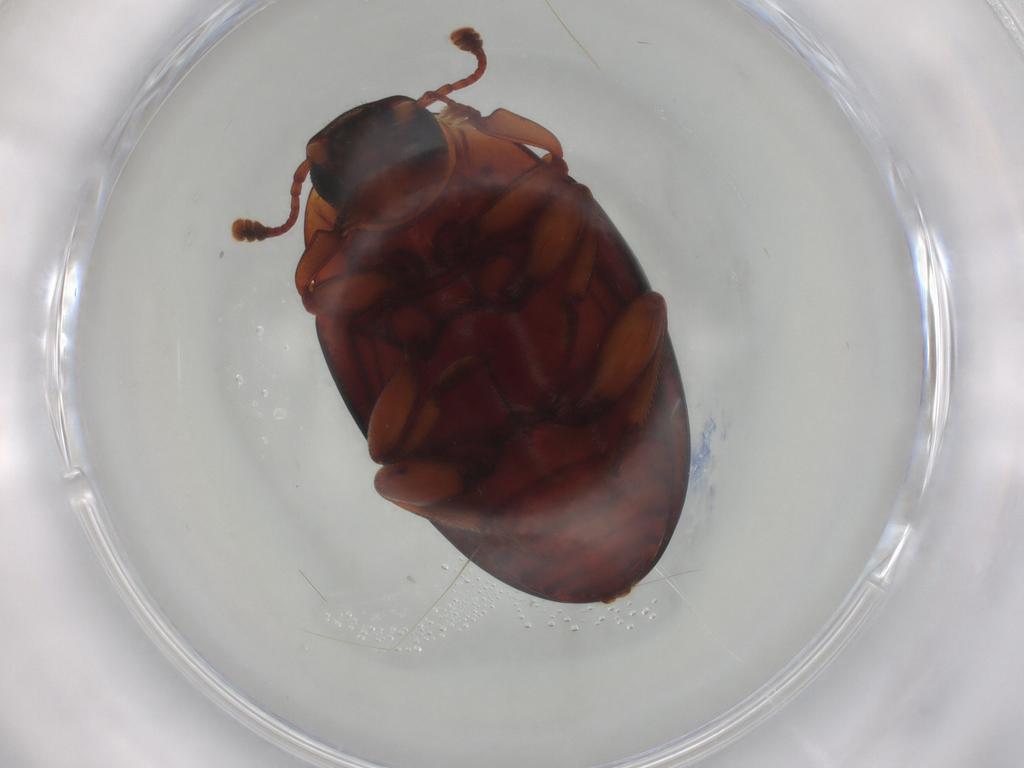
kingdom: Animalia
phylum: Arthropoda
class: Insecta
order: Coleoptera
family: Zopheridae
